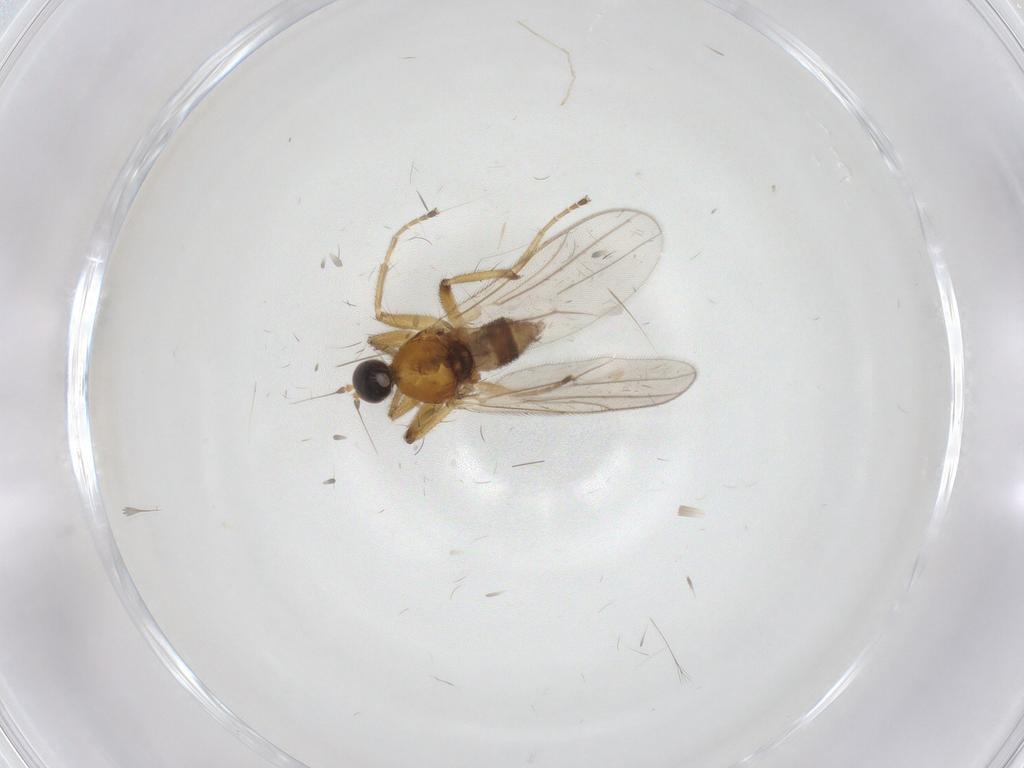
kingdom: Animalia
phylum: Arthropoda
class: Insecta
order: Diptera
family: Limoniidae
